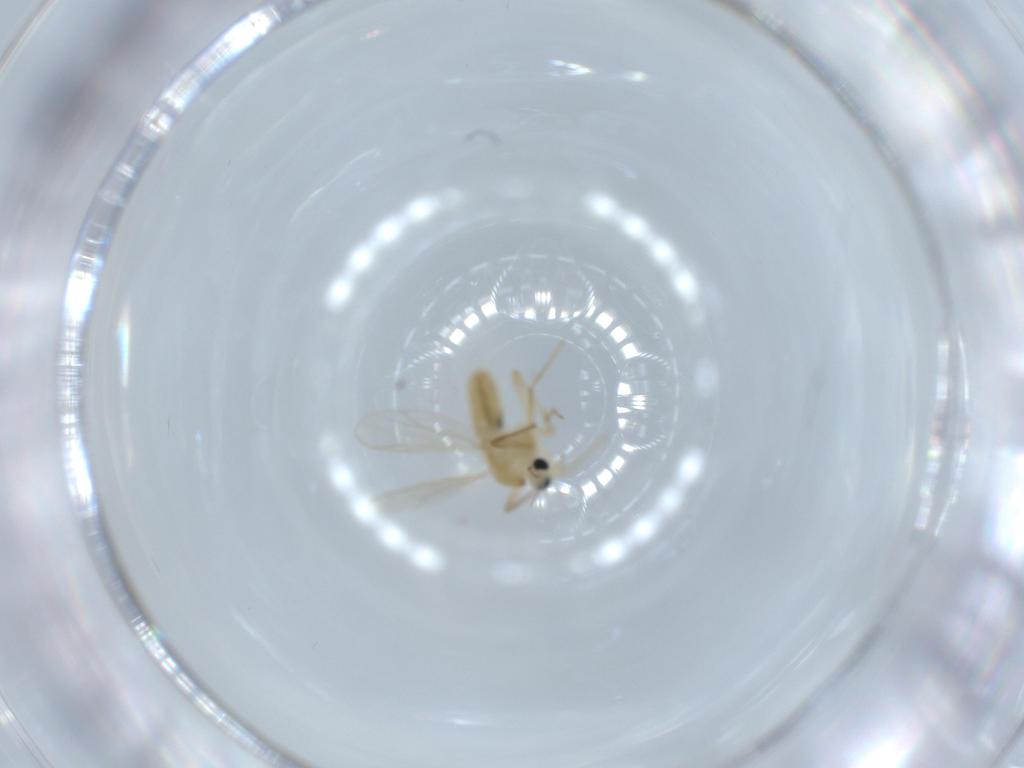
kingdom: Animalia
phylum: Arthropoda
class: Insecta
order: Diptera
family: Chironomidae
